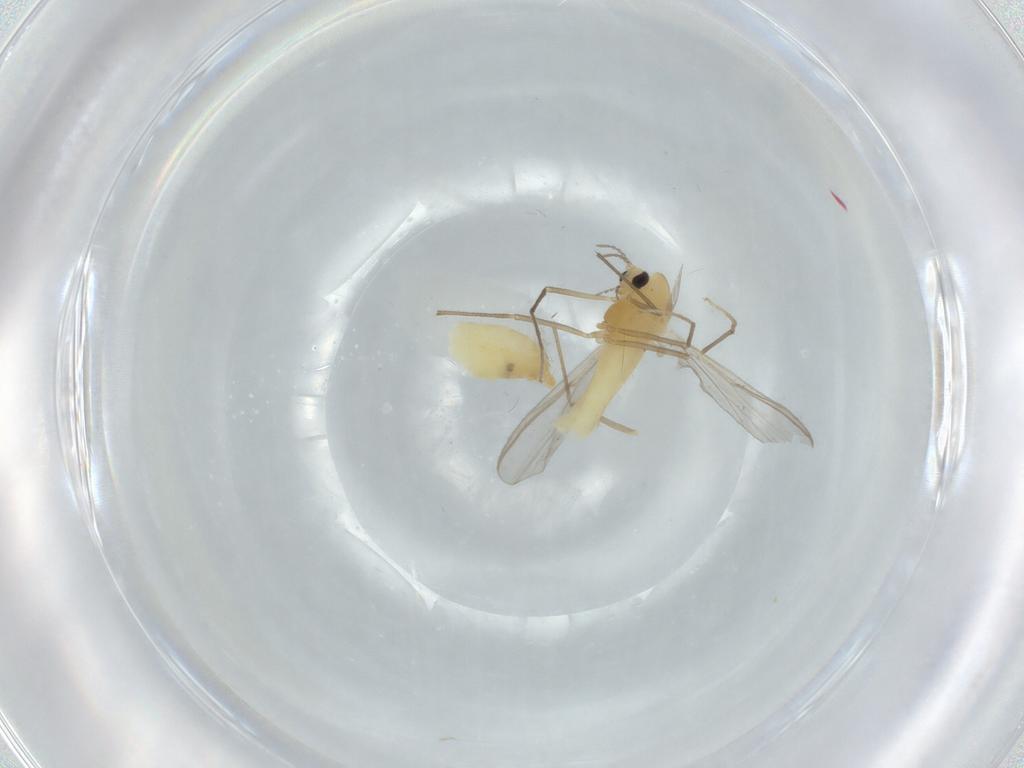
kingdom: Animalia
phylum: Arthropoda
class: Insecta
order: Diptera
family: Chironomidae
